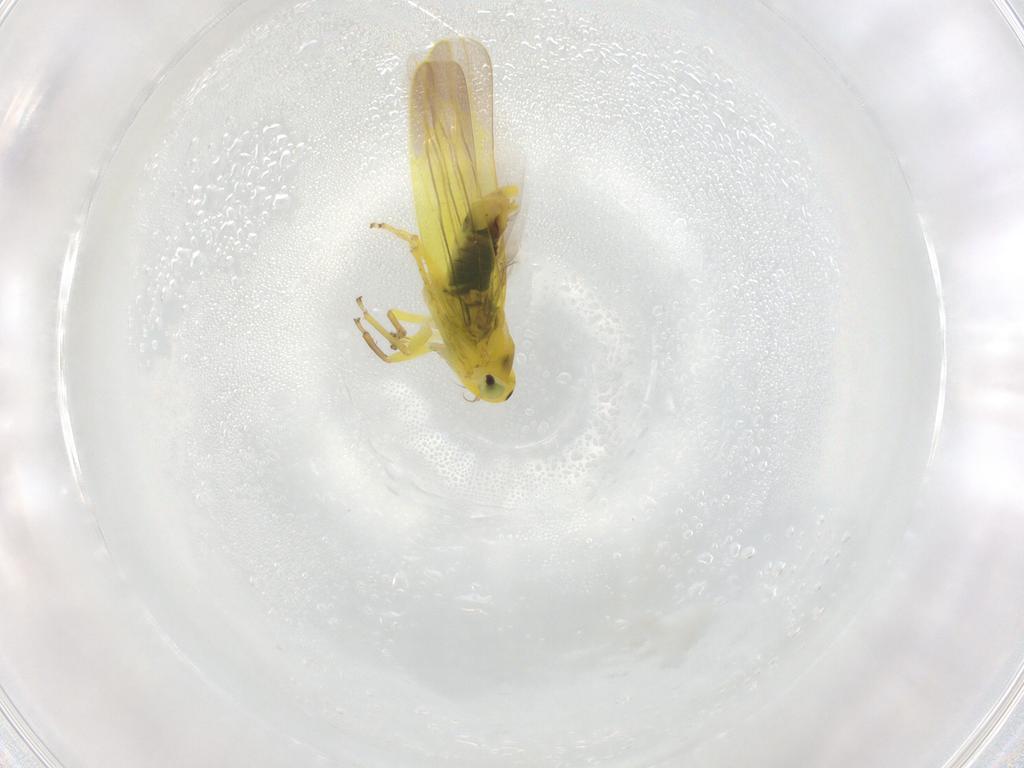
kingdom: Animalia
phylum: Arthropoda
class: Insecta
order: Hemiptera
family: Cicadellidae
